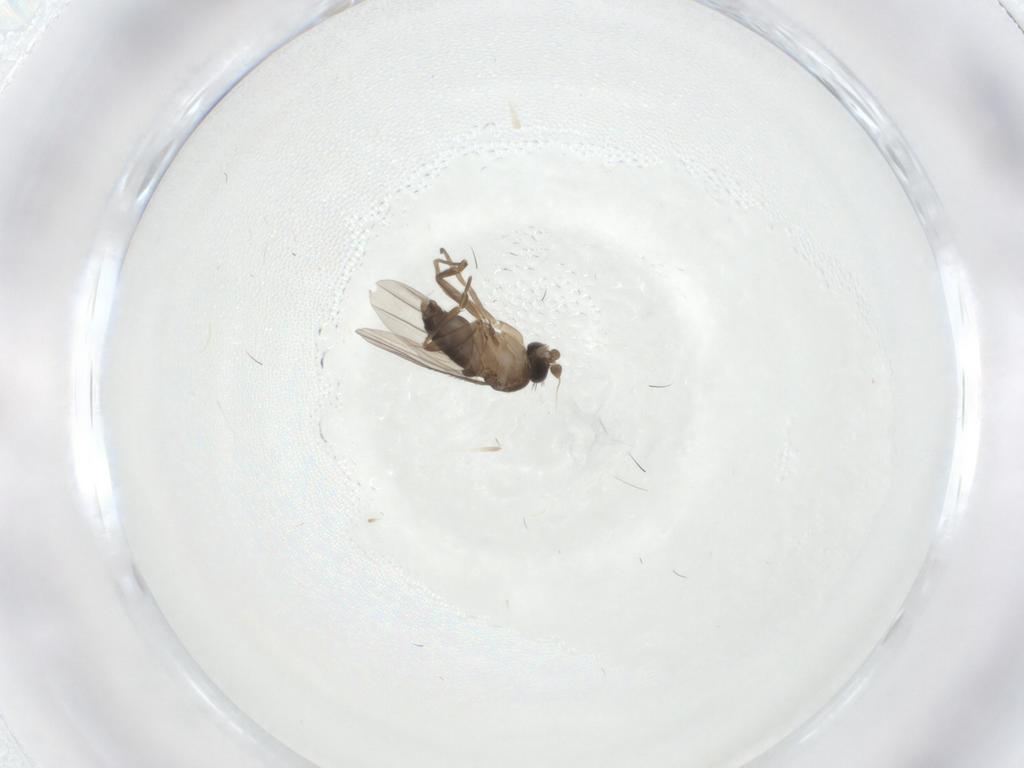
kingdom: Animalia
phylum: Arthropoda
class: Insecta
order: Diptera
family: Cecidomyiidae
